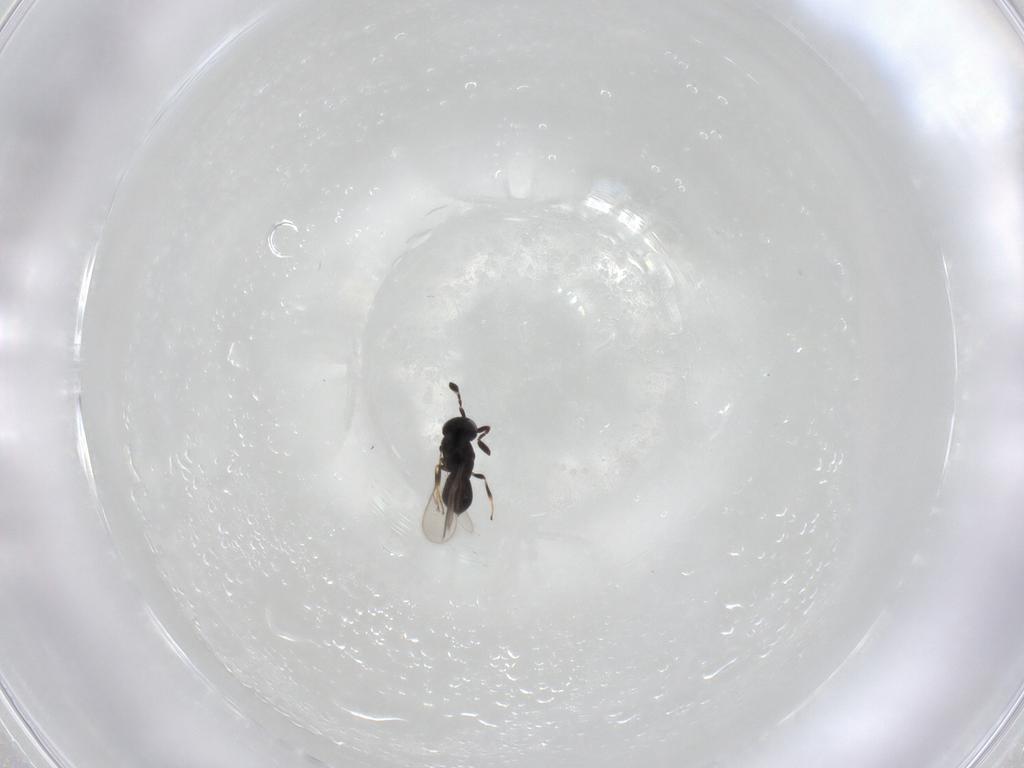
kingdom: Animalia
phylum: Arthropoda
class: Insecta
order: Hymenoptera
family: Scelionidae
